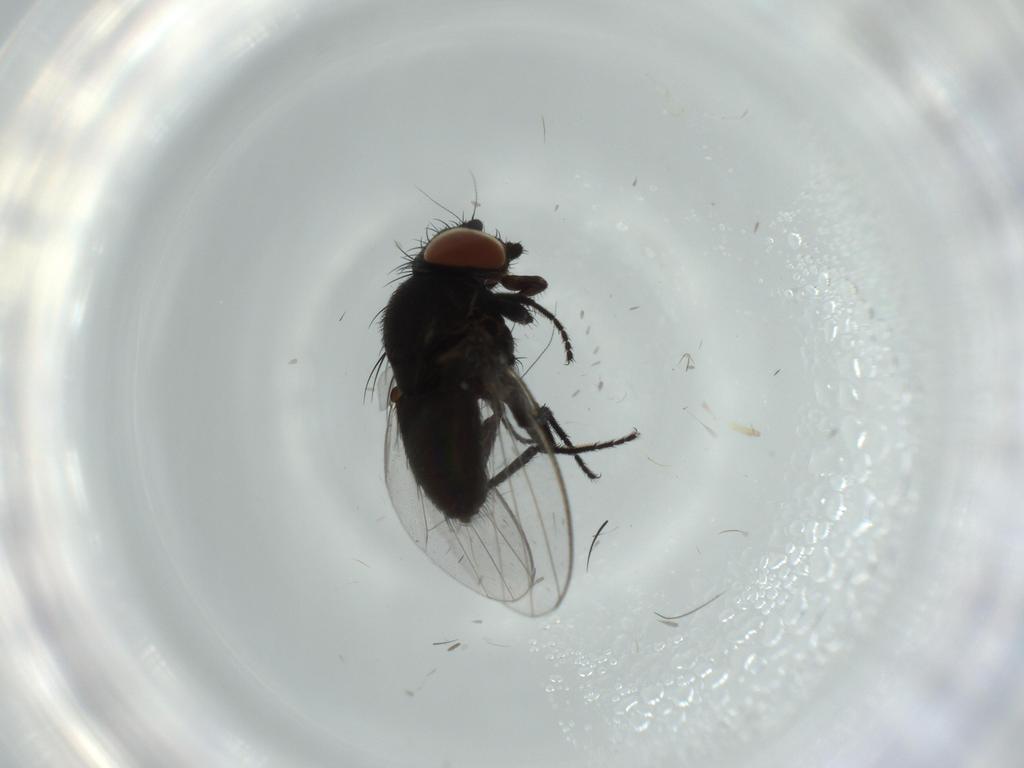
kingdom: Animalia
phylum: Arthropoda
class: Insecta
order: Diptera
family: Milichiidae
